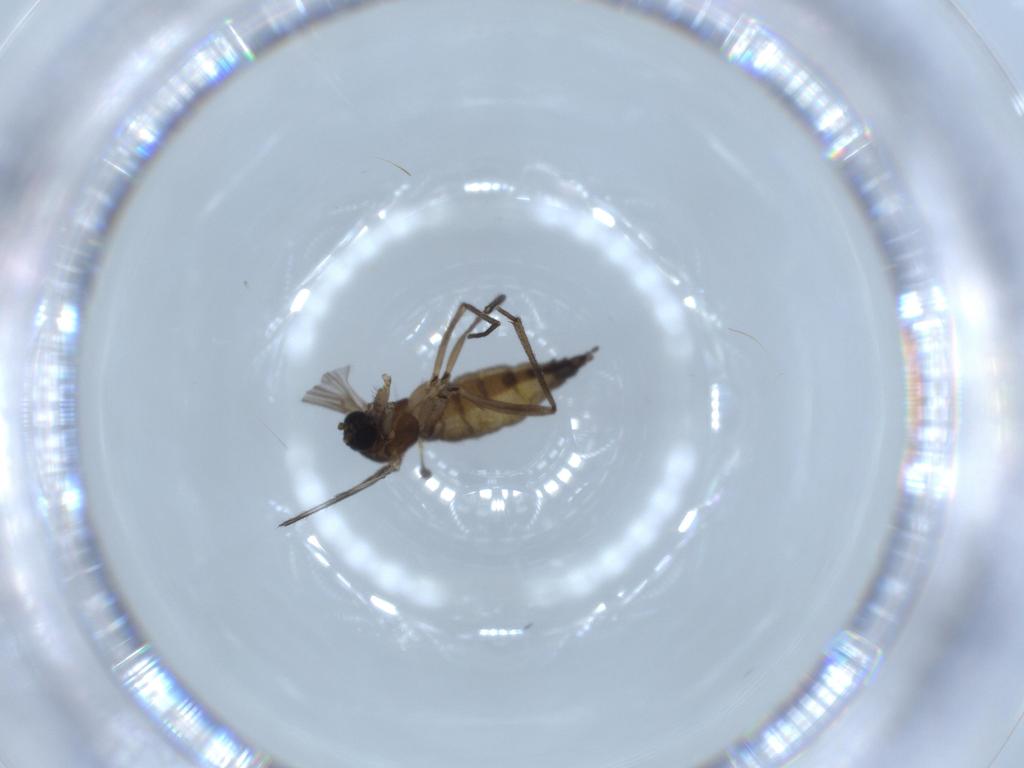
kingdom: Animalia
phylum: Arthropoda
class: Insecta
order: Diptera
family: Sciaridae
